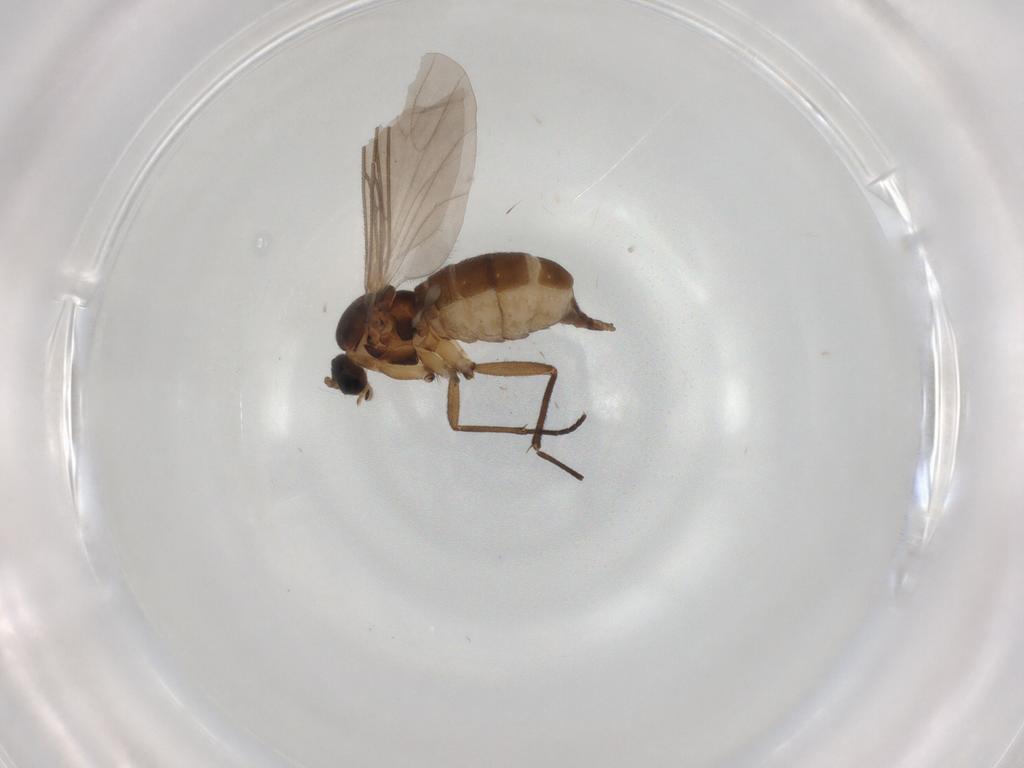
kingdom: Animalia
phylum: Arthropoda
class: Insecta
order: Diptera
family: Sciaridae
